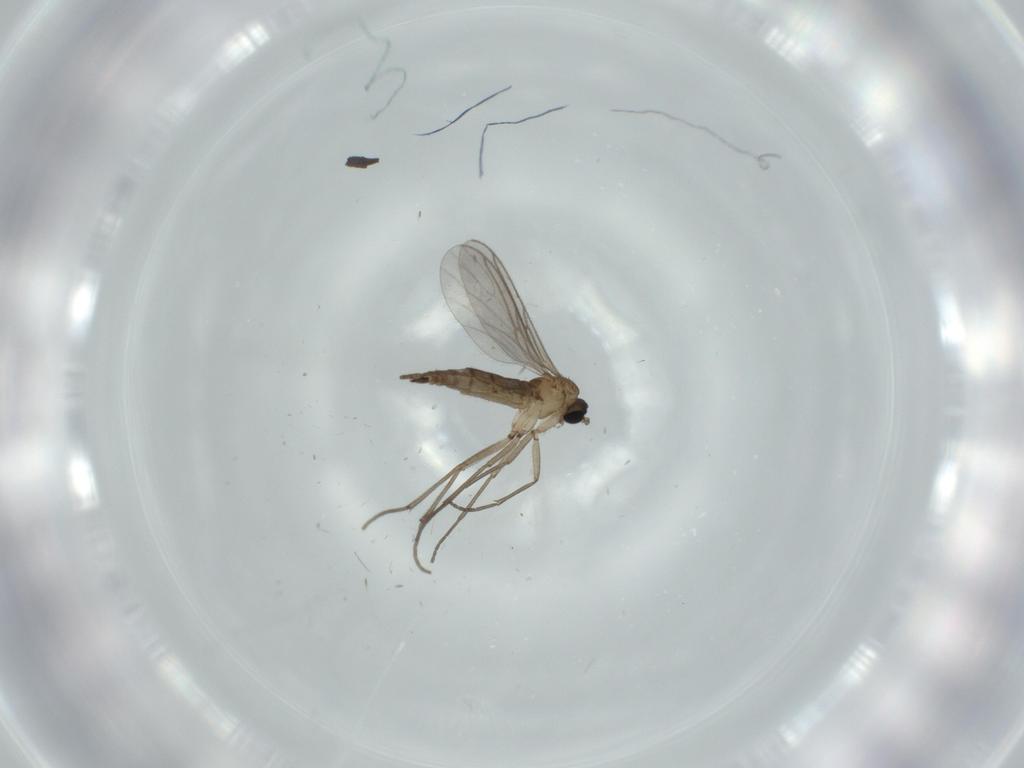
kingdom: Animalia
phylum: Arthropoda
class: Insecta
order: Diptera
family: Sciaridae
